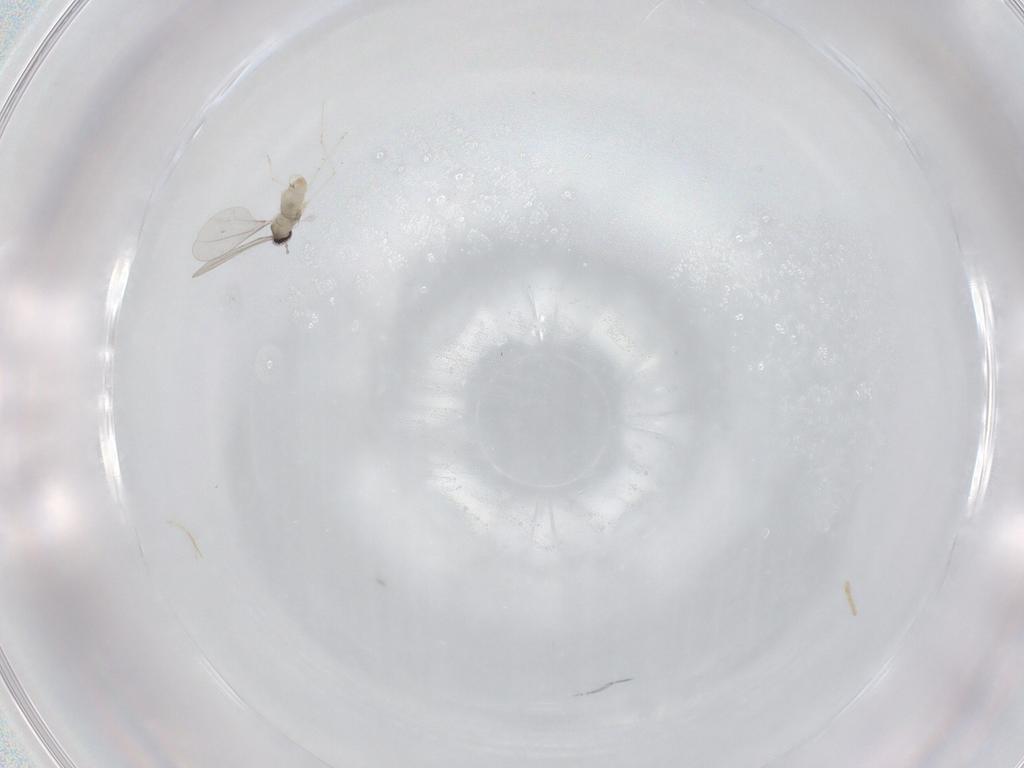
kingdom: Animalia
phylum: Arthropoda
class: Insecta
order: Diptera
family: Cecidomyiidae
